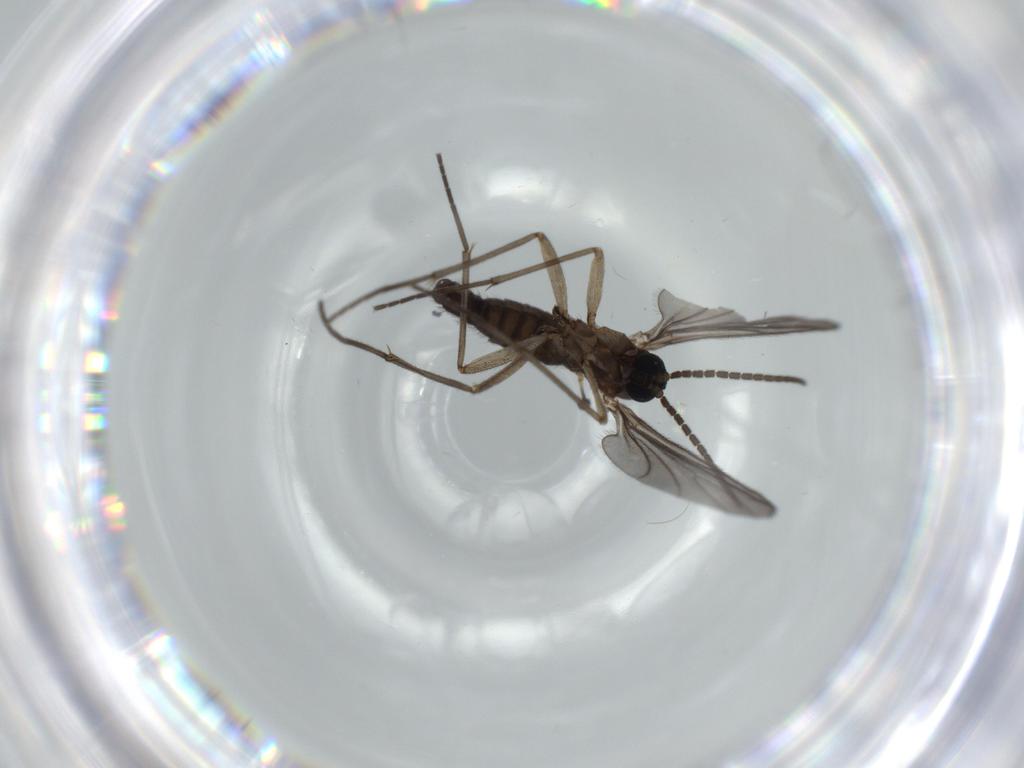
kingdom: Animalia
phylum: Arthropoda
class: Insecta
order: Diptera
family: Sciaridae
